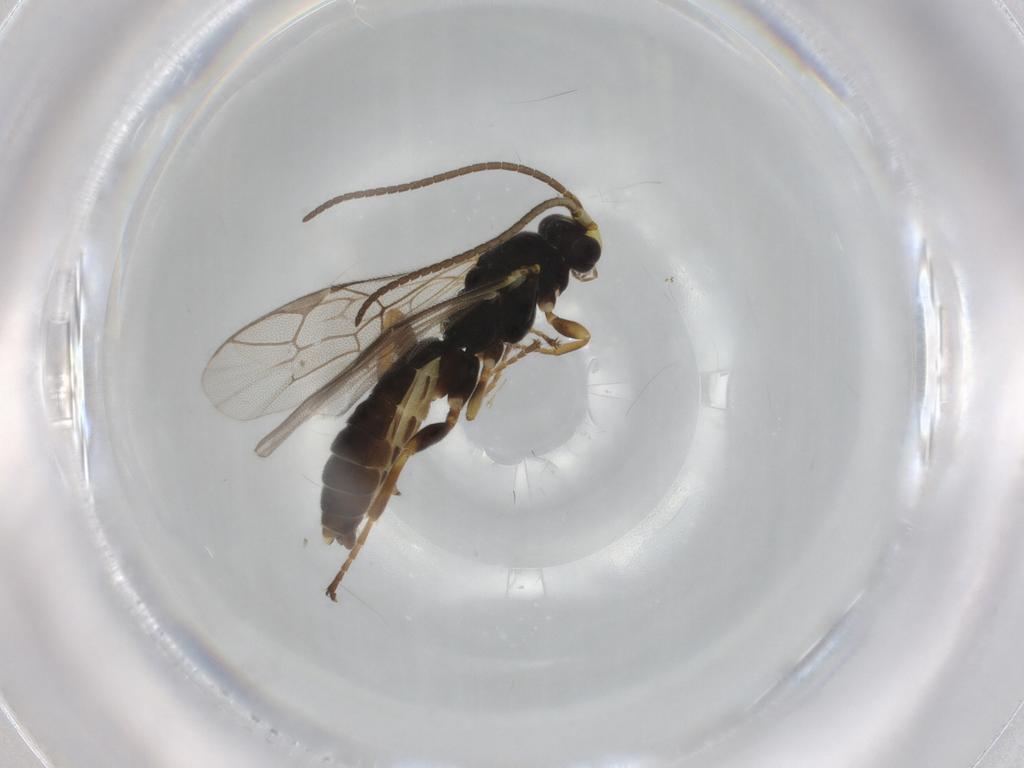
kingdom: Animalia
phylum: Arthropoda
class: Insecta
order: Hymenoptera
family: Ichneumonidae
